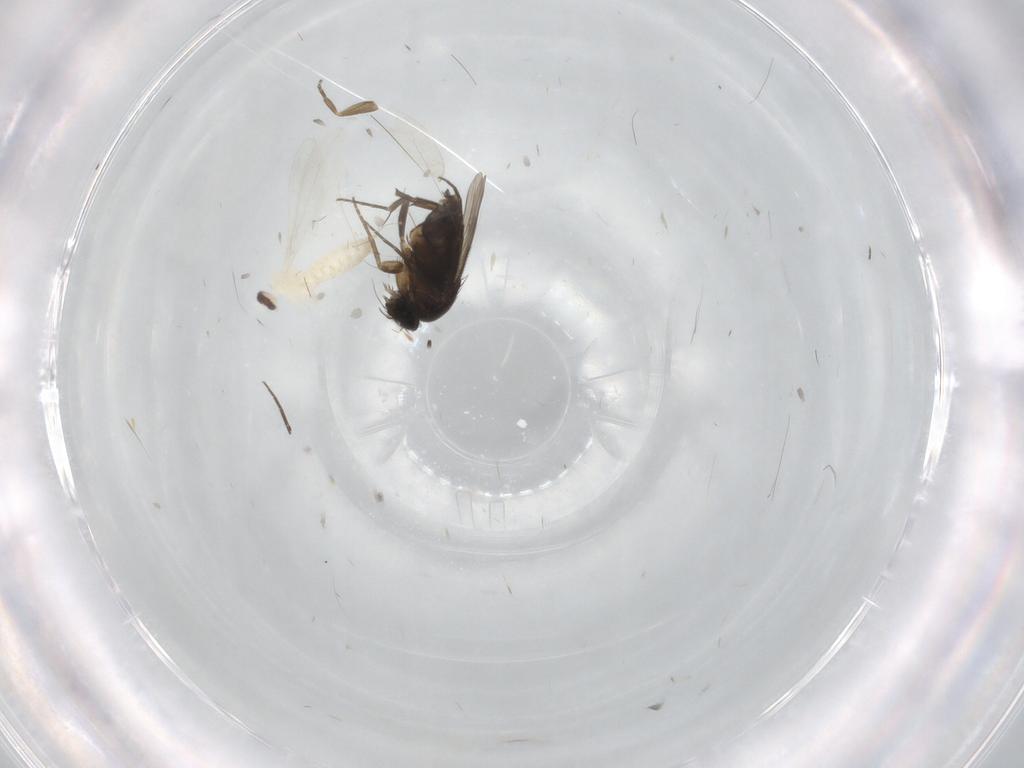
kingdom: Animalia
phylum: Arthropoda
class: Insecta
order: Diptera
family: Cecidomyiidae
